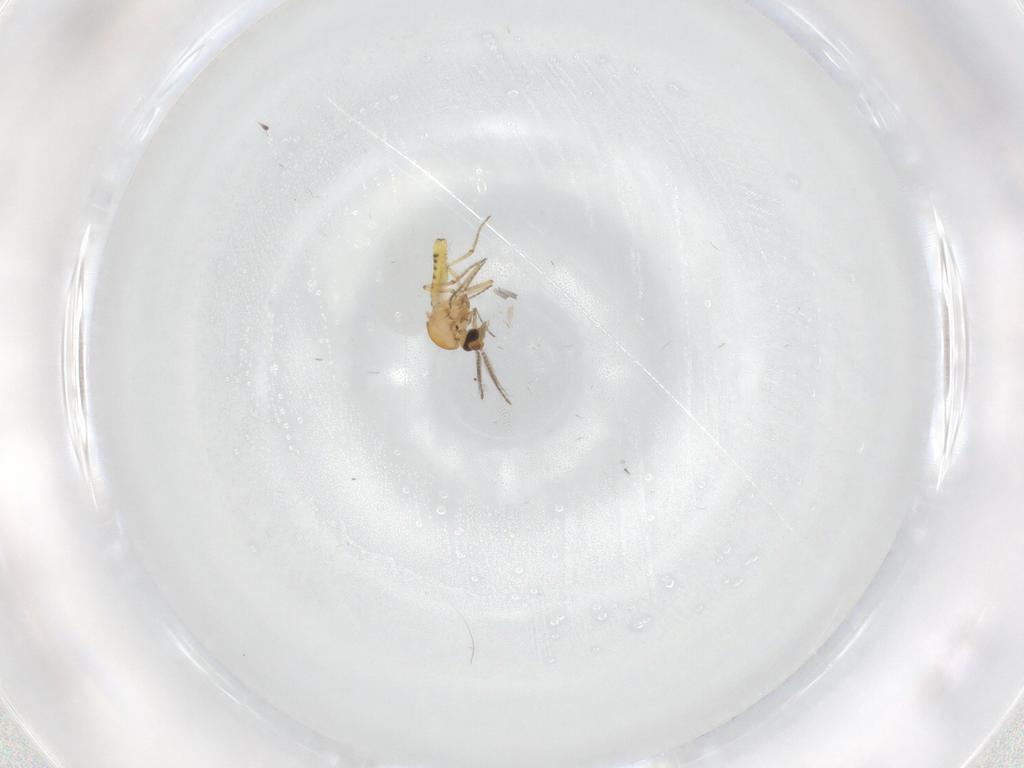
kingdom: Animalia
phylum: Arthropoda
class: Insecta
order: Diptera
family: Ceratopogonidae
